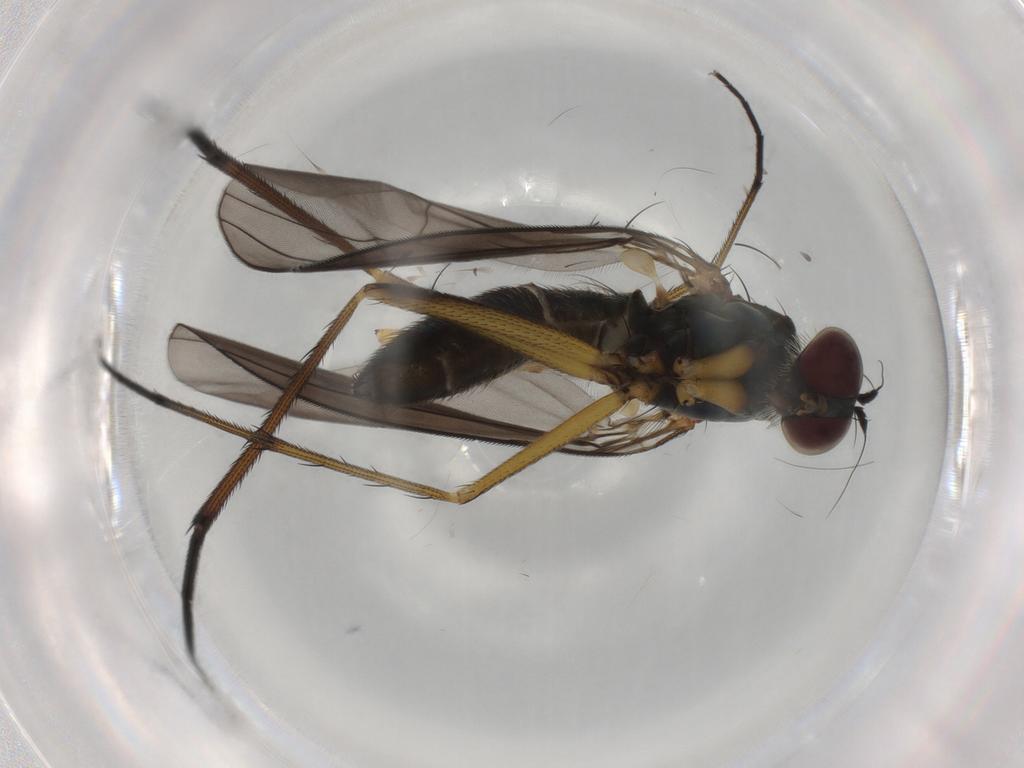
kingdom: Animalia
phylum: Arthropoda
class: Insecta
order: Diptera
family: Dolichopodidae
